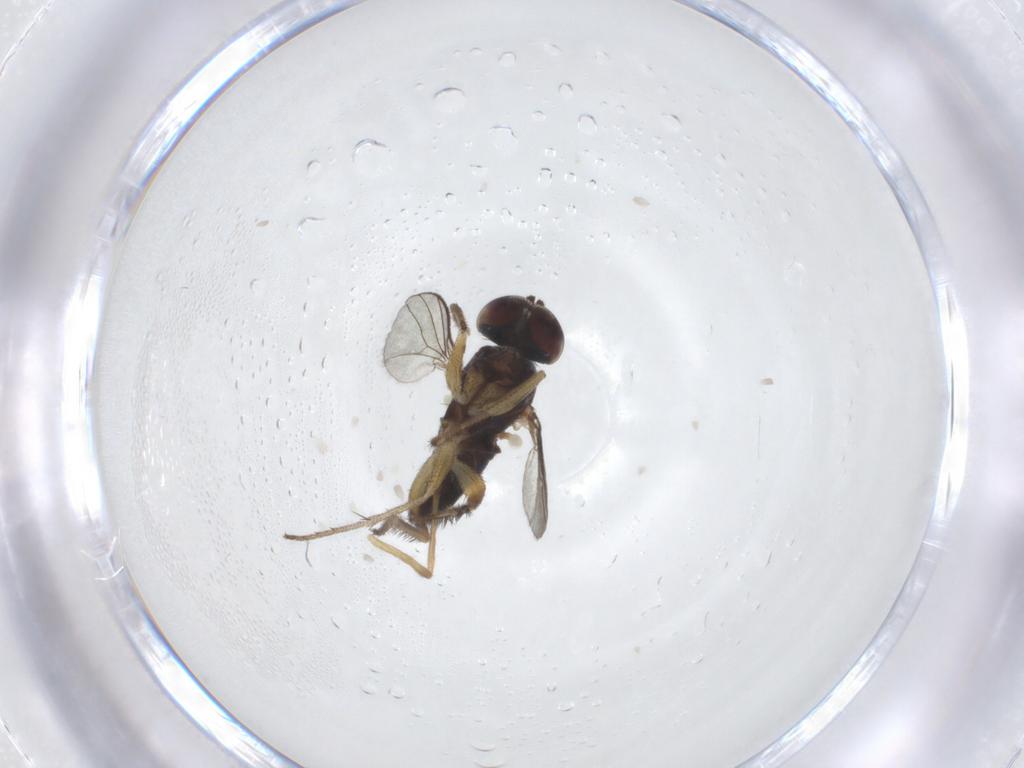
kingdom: Animalia
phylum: Arthropoda
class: Insecta
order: Diptera
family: Dolichopodidae
